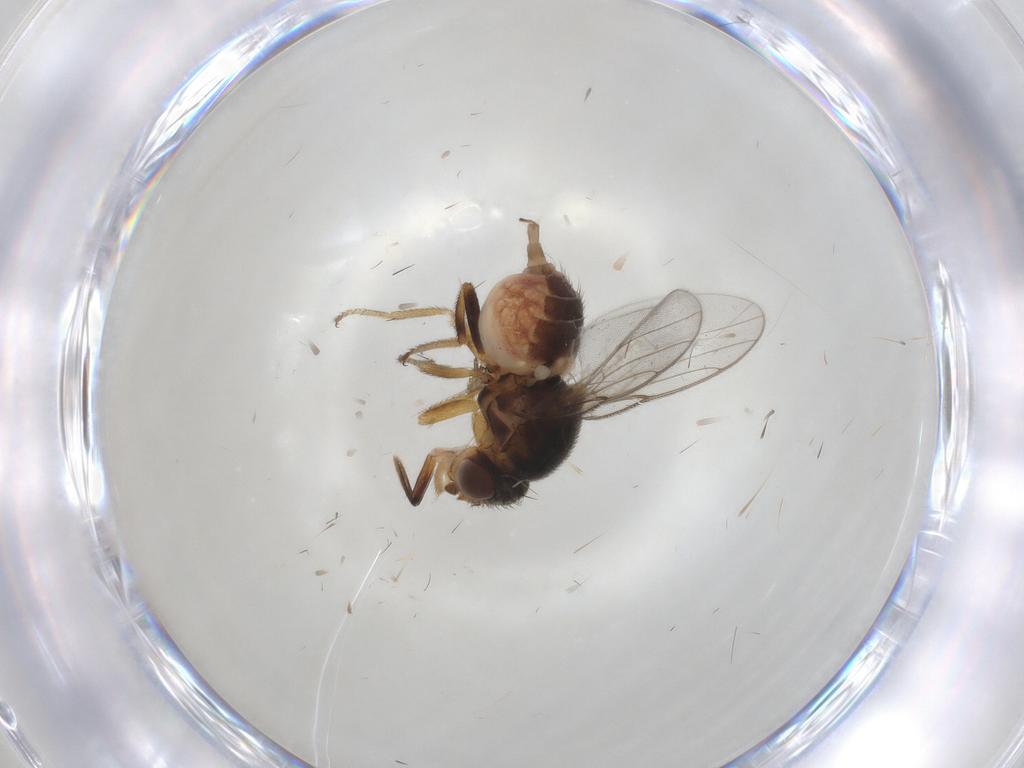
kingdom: Animalia
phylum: Arthropoda
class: Insecta
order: Diptera
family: Chloropidae
